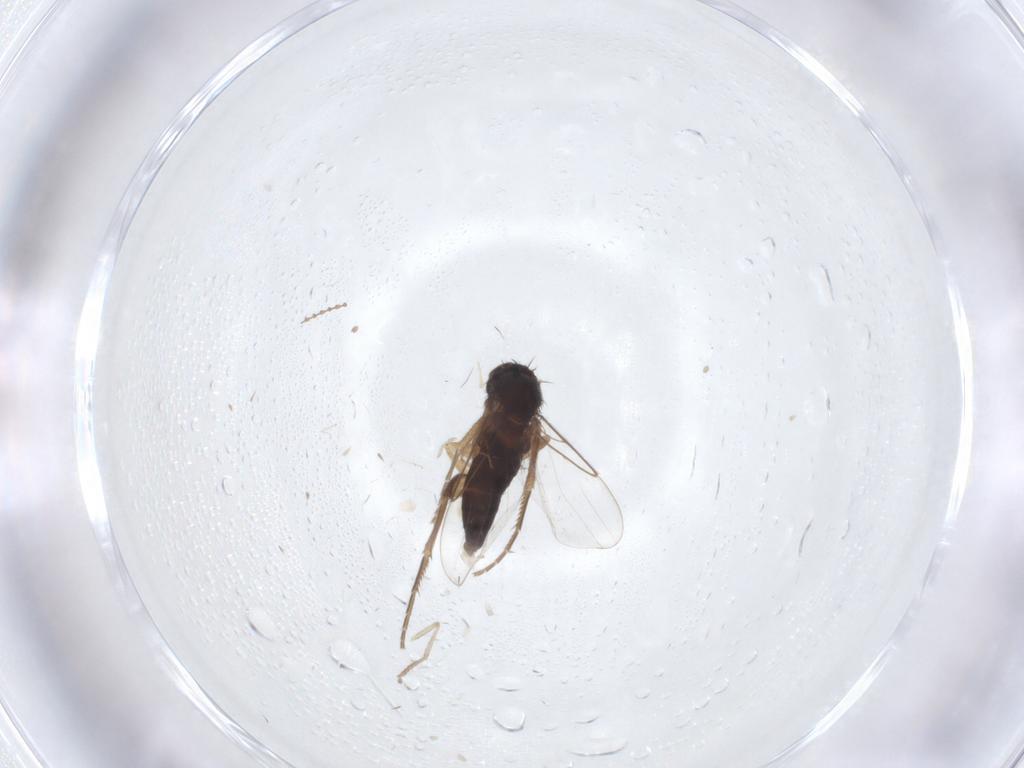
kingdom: Animalia
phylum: Arthropoda
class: Insecta
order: Diptera
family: Phoridae
